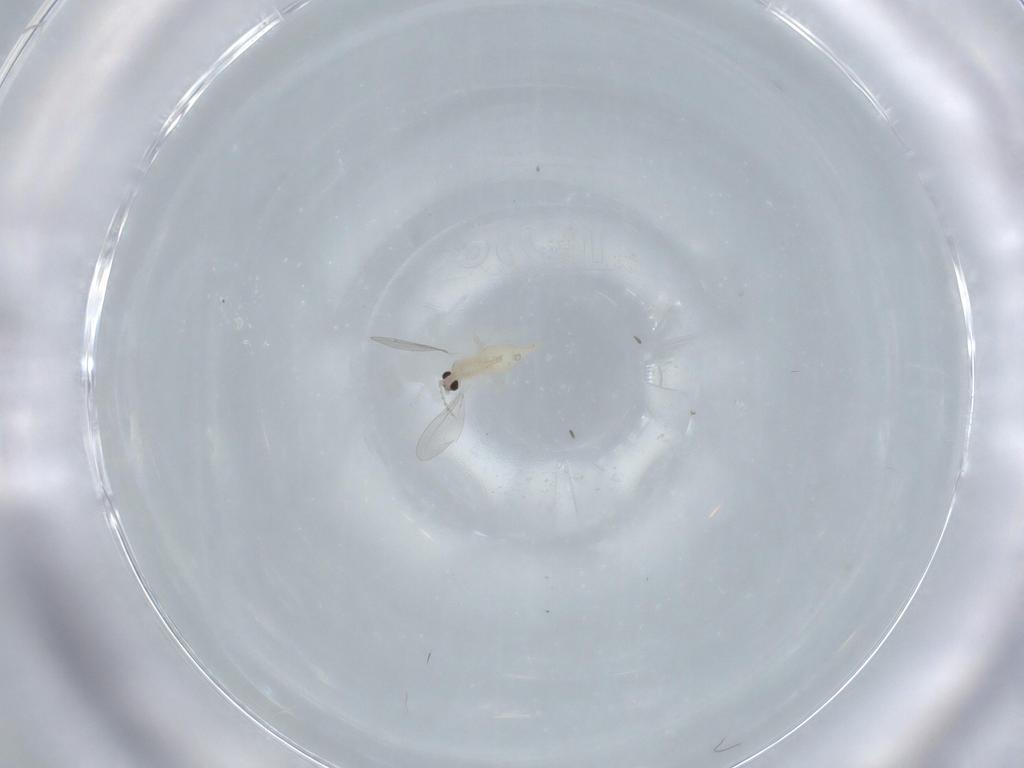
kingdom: Animalia
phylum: Arthropoda
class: Insecta
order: Diptera
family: Cecidomyiidae
